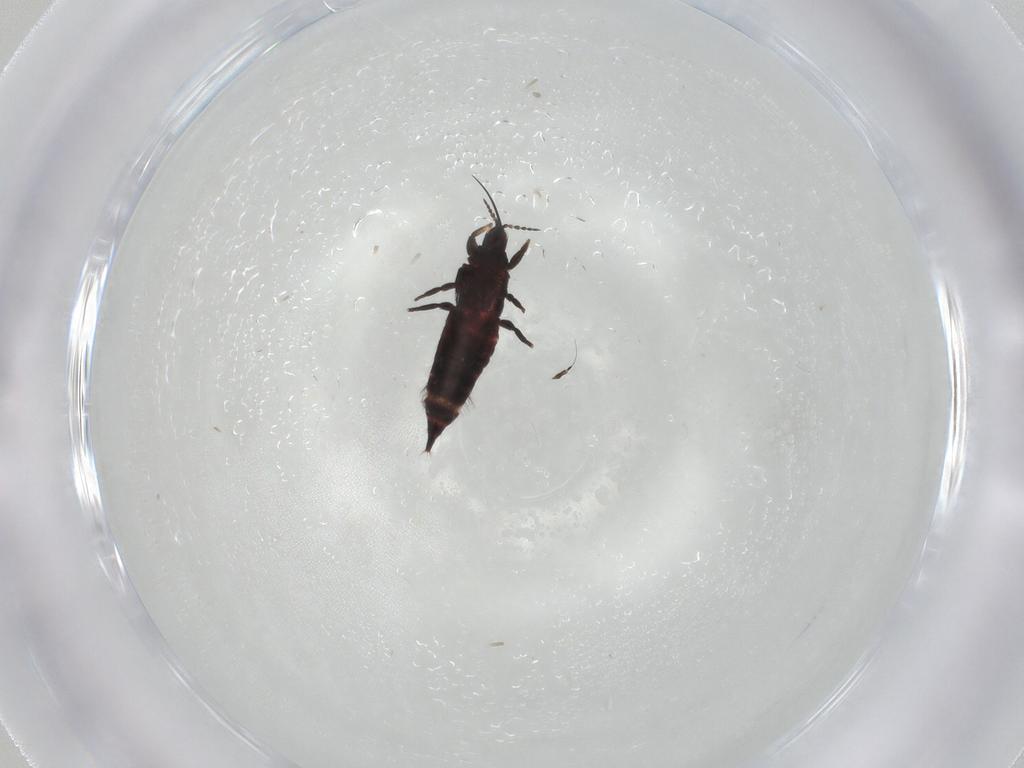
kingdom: Animalia
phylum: Arthropoda
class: Insecta
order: Thysanoptera
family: Phlaeothripidae
